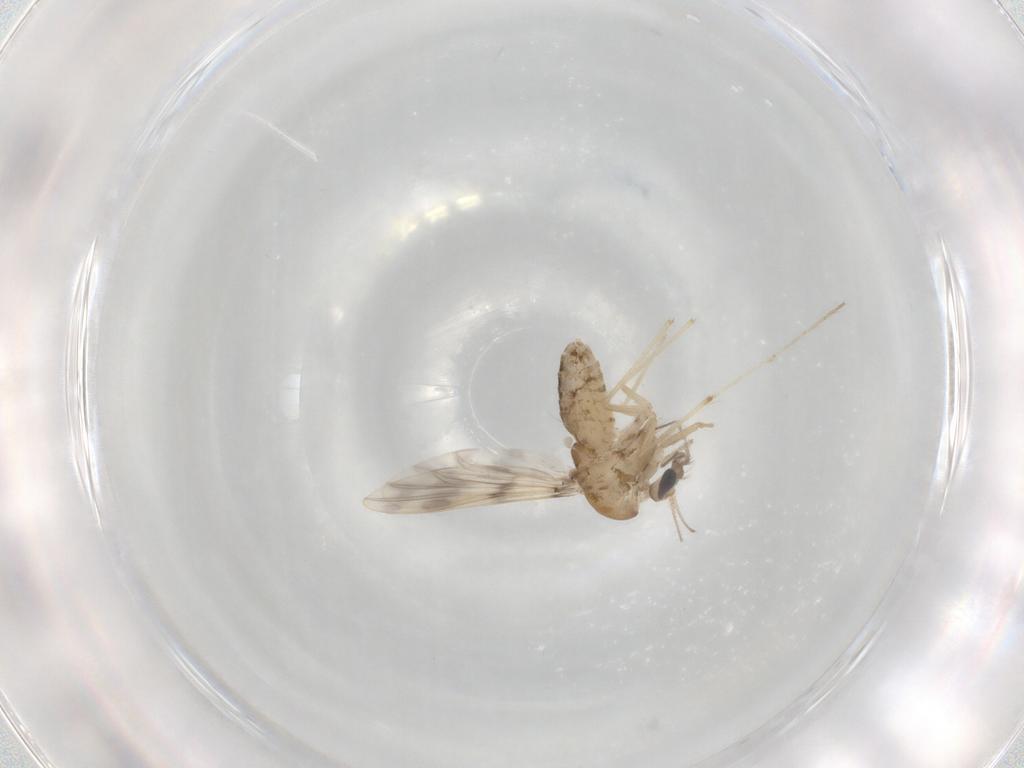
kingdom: Animalia
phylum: Arthropoda
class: Insecta
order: Diptera
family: Chironomidae
